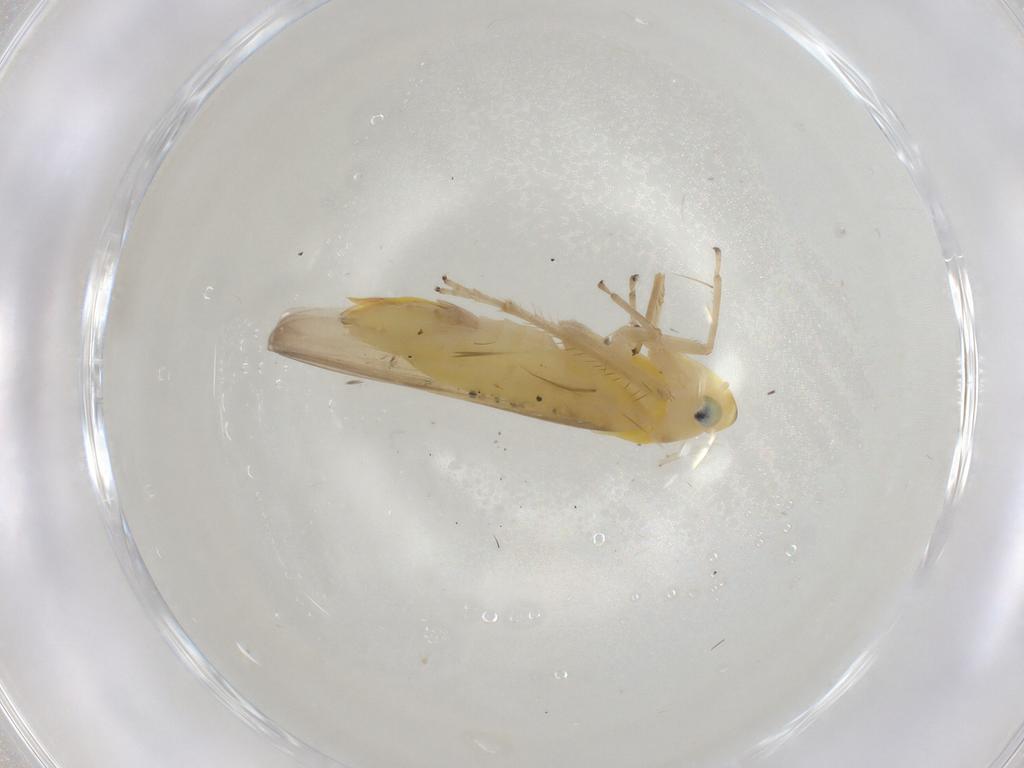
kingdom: Animalia
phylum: Arthropoda
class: Insecta
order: Hemiptera
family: Cicadellidae
